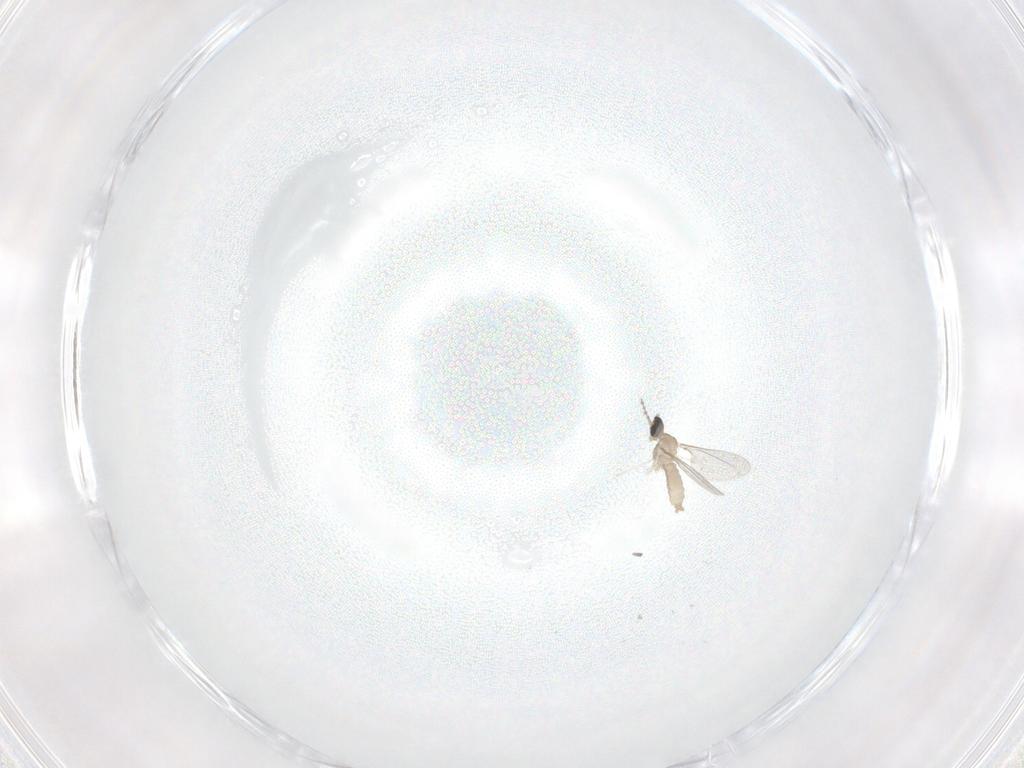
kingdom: Animalia
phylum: Arthropoda
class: Insecta
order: Diptera
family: Cecidomyiidae
